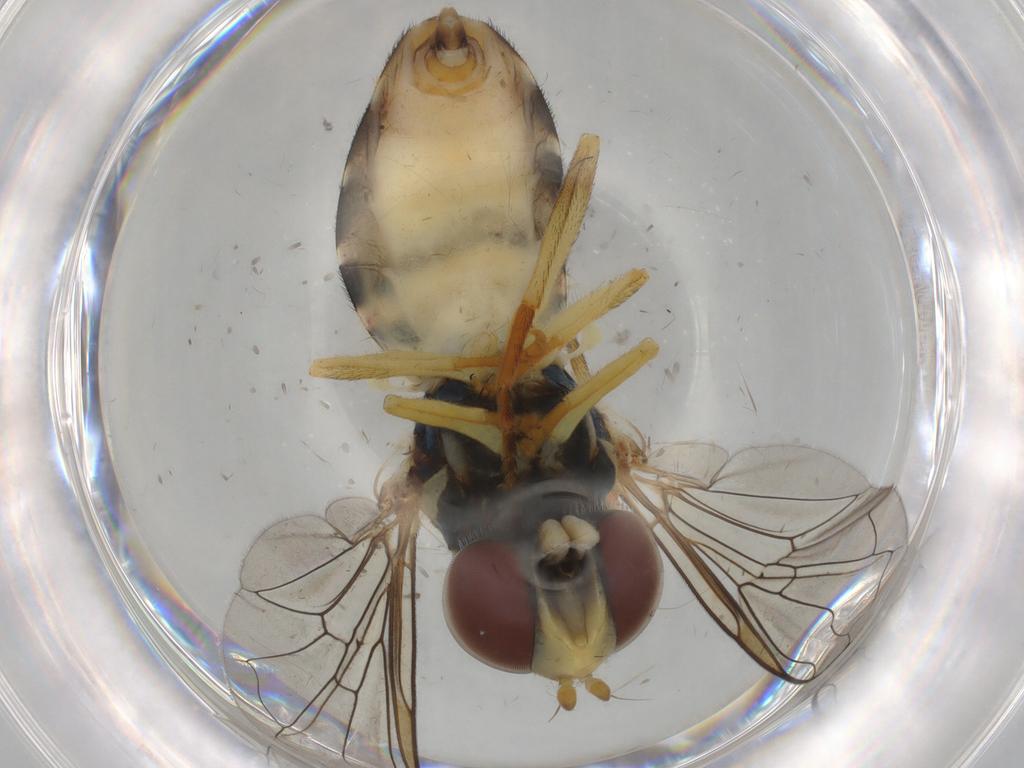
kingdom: Animalia
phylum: Arthropoda
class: Insecta
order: Diptera
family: Syrphidae
